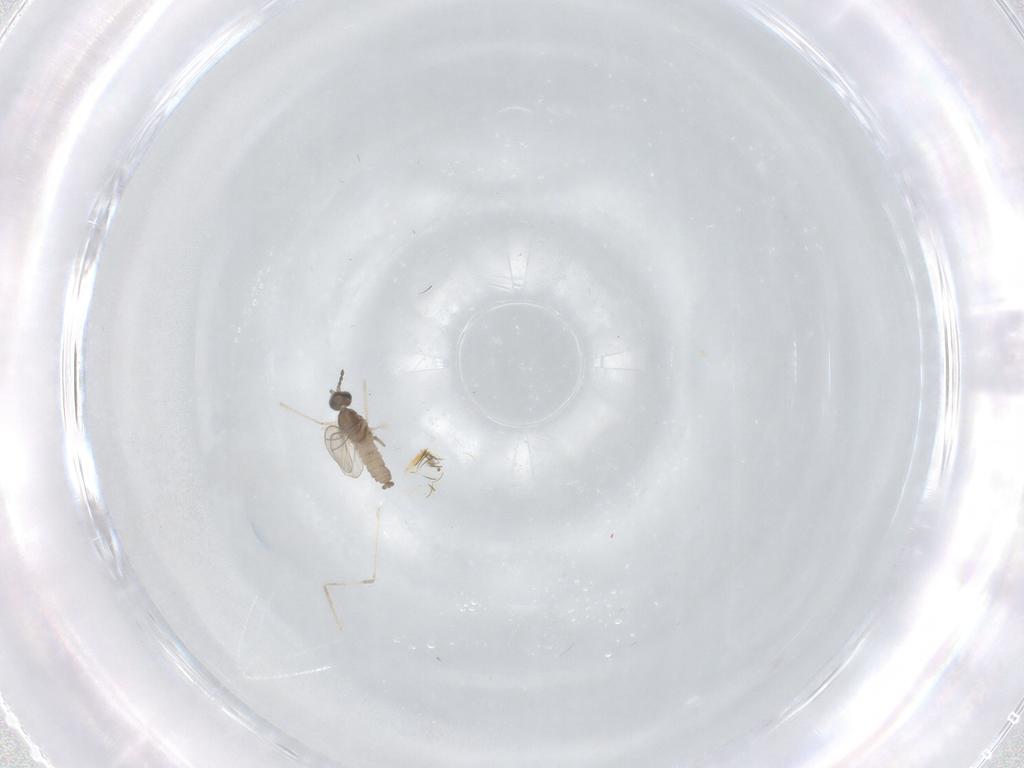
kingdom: Animalia
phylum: Arthropoda
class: Insecta
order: Diptera
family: Cecidomyiidae
